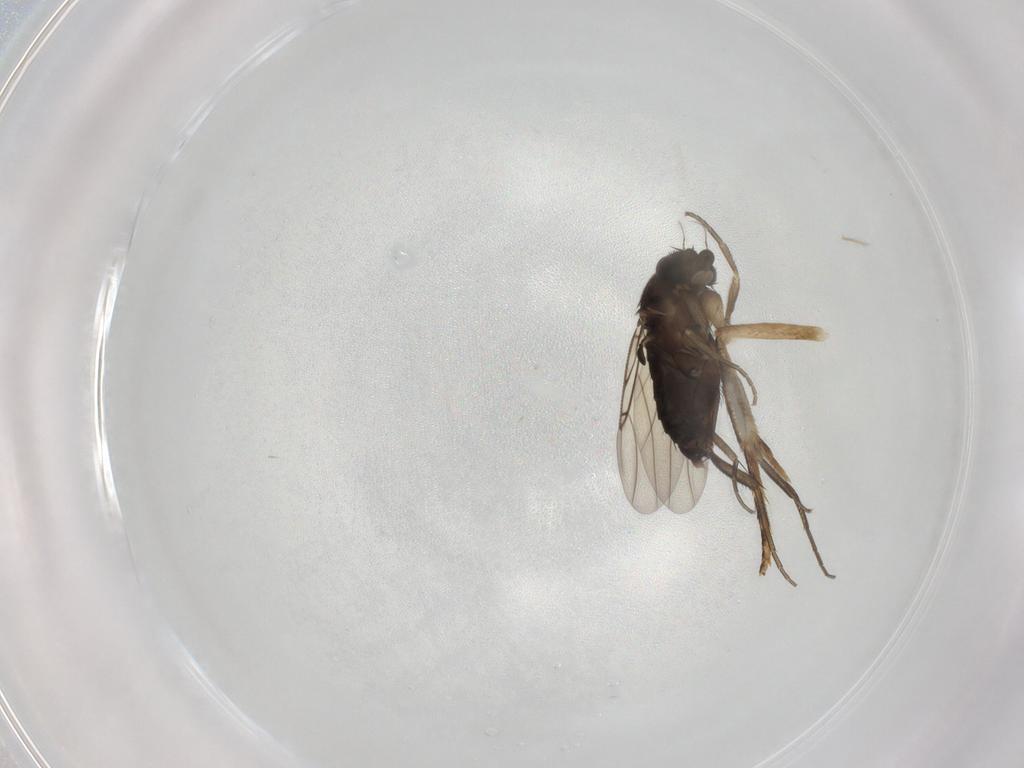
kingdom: Animalia
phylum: Arthropoda
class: Insecta
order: Diptera
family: Phoridae
